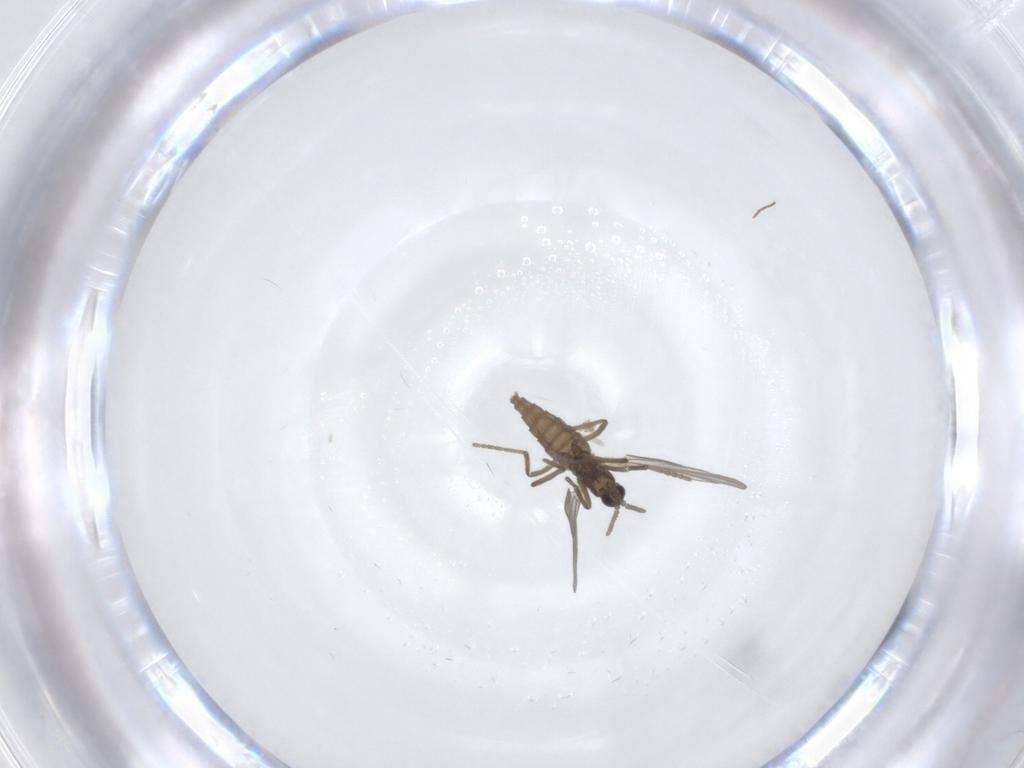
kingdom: Animalia
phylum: Arthropoda
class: Insecta
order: Diptera
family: Cecidomyiidae
